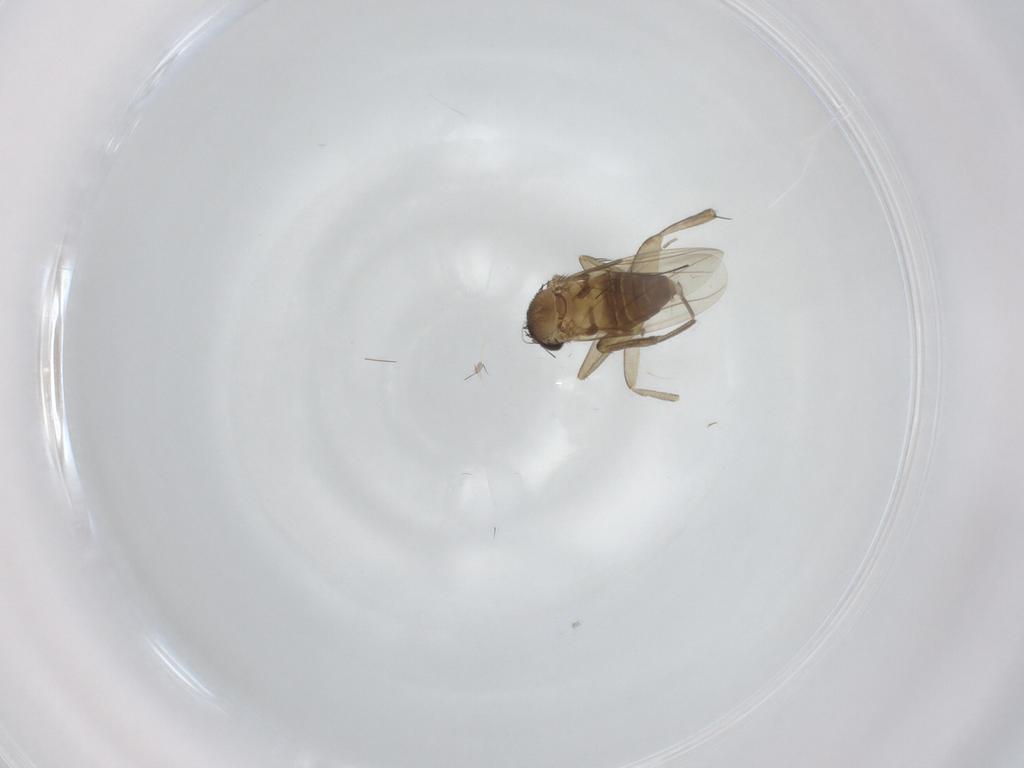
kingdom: Animalia
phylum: Arthropoda
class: Insecta
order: Diptera
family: Phoridae
